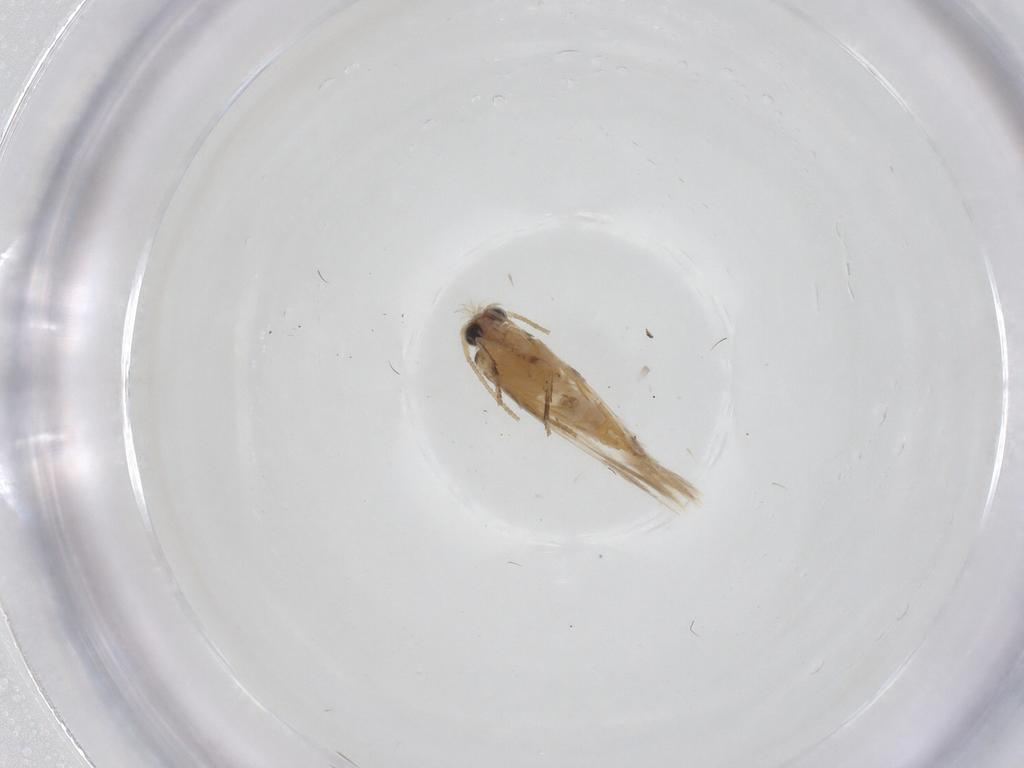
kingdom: Animalia
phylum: Arthropoda
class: Insecta
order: Lepidoptera
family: Nepticulidae
